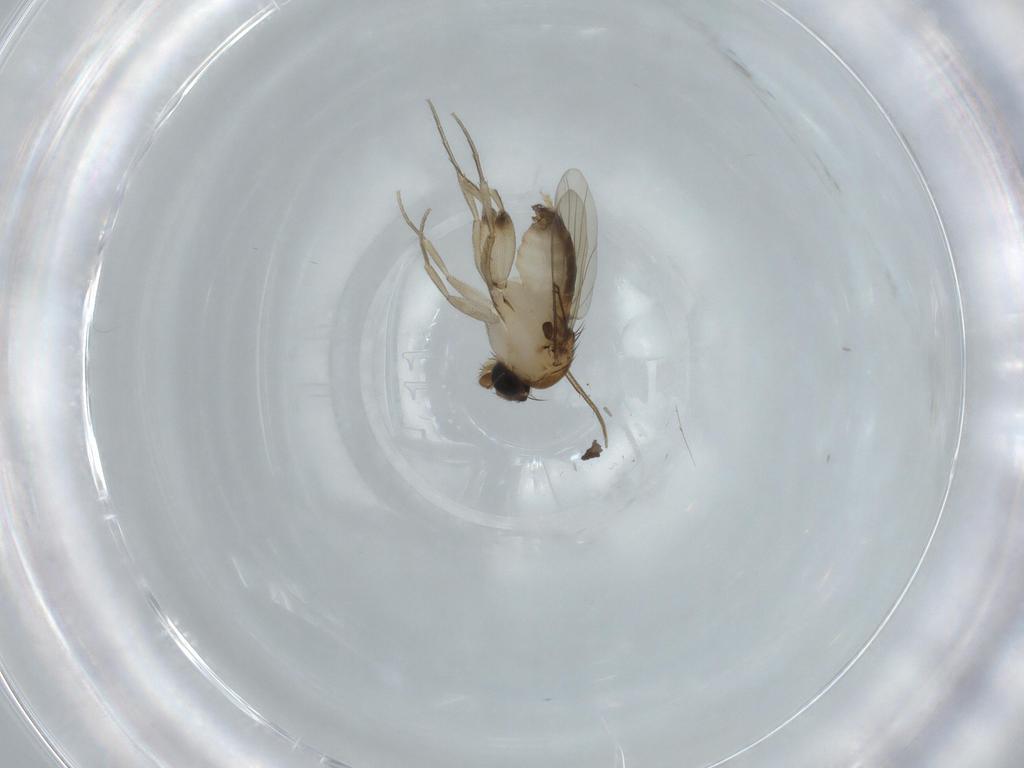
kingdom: Animalia
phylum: Arthropoda
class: Insecta
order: Diptera
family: Phoridae
